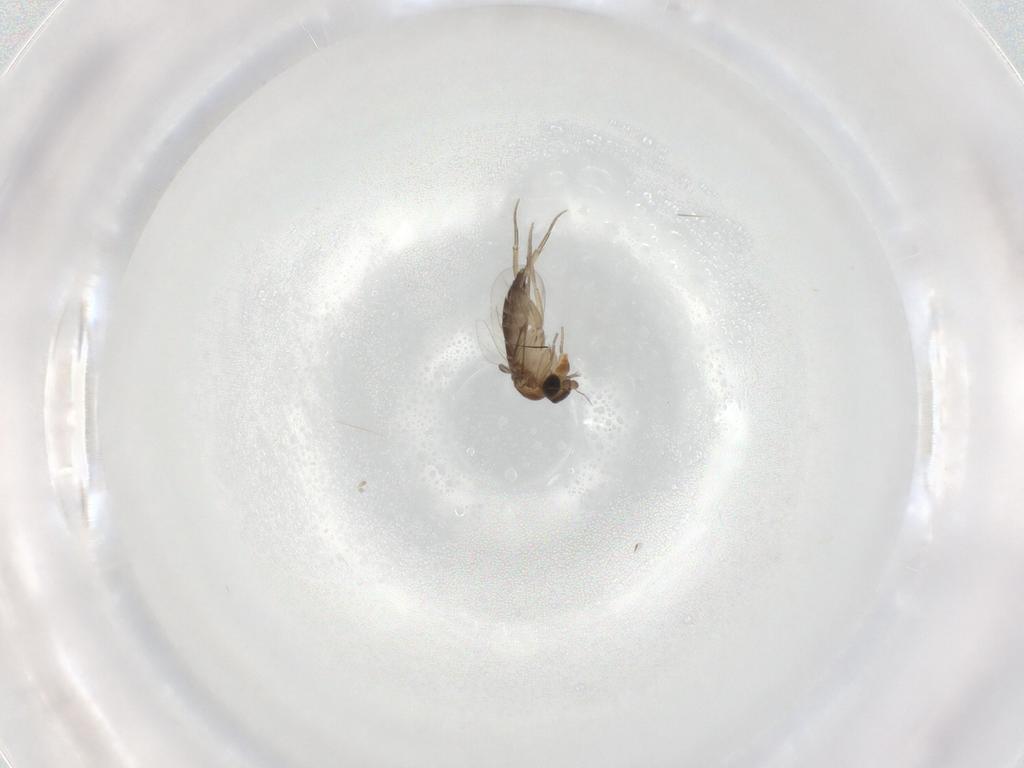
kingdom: Animalia
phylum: Arthropoda
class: Insecta
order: Diptera
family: Phoridae
